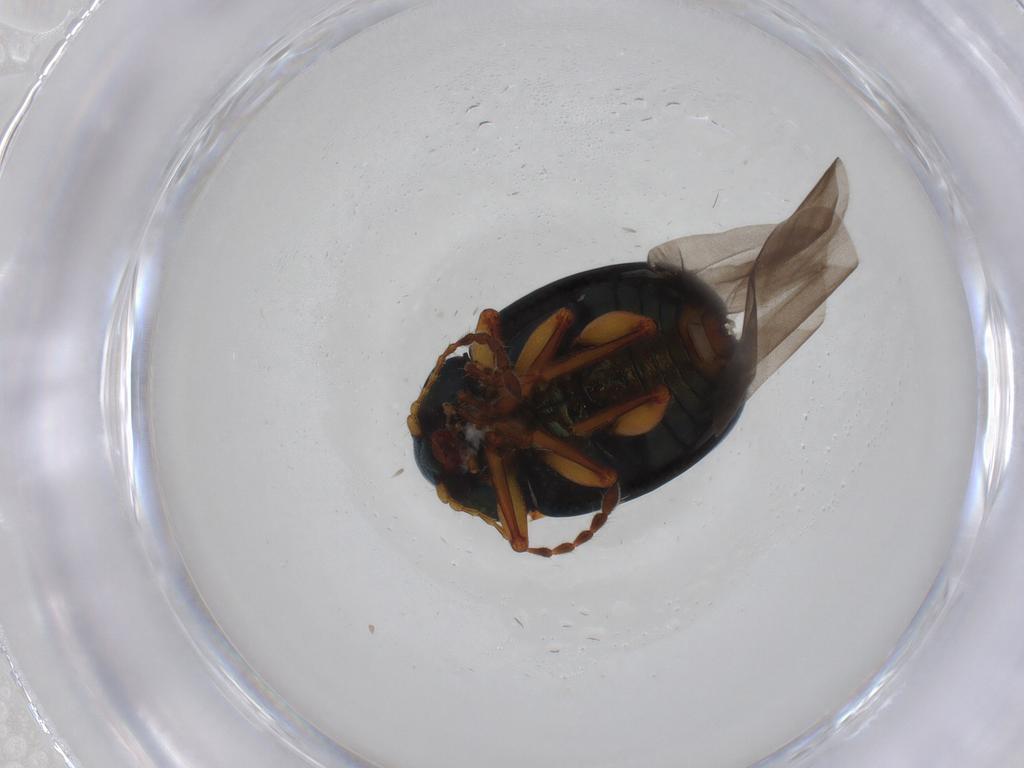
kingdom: Animalia
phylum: Arthropoda
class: Insecta
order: Coleoptera
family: Chrysomelidae
